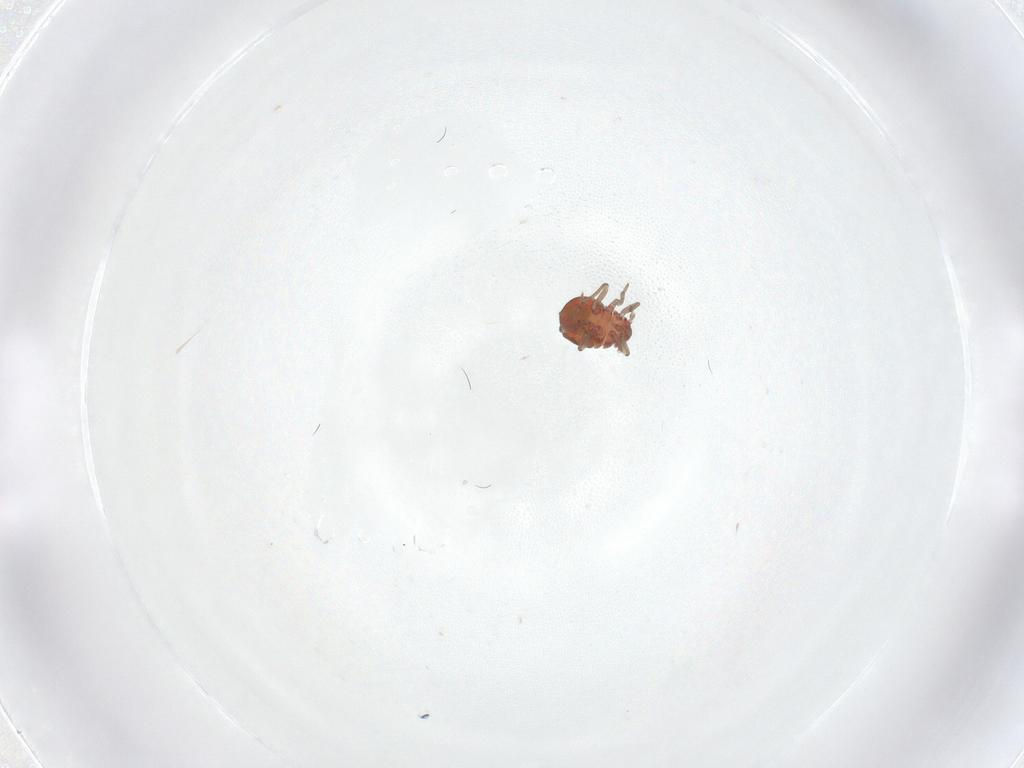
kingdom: Animalia
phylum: Arthropoda
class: Insecta
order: Hemiptera
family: Schizopteridae
